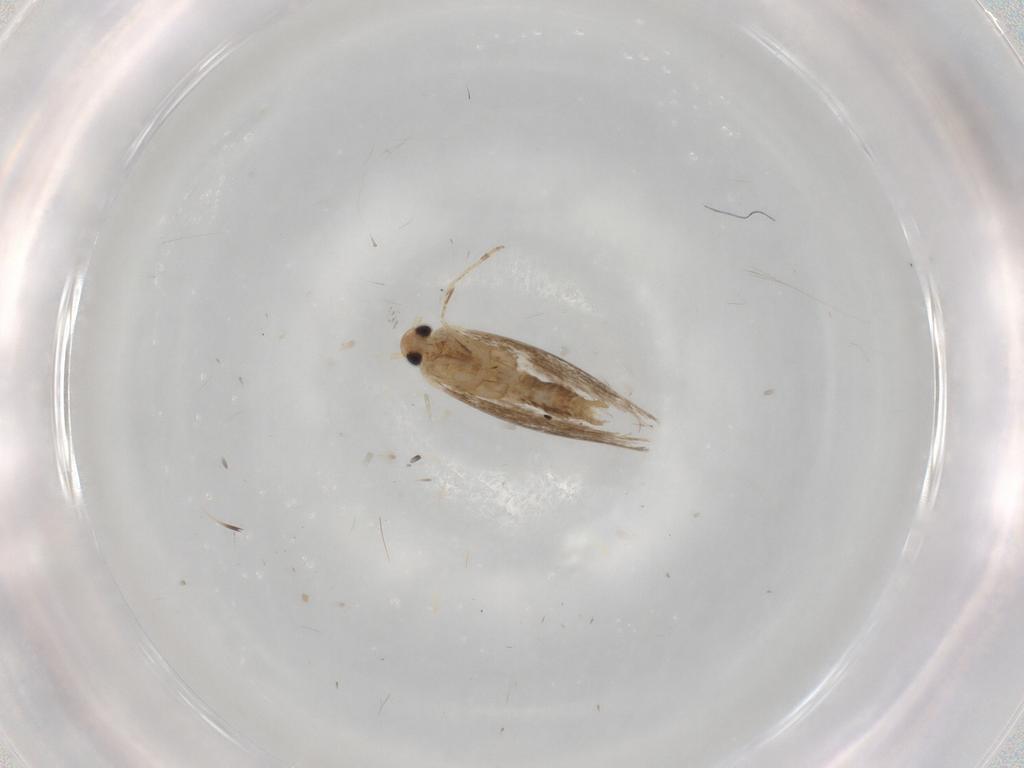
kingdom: Animalia
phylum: Arthropoda
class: Insecta
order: Lepidoptera
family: Gracillariidae
